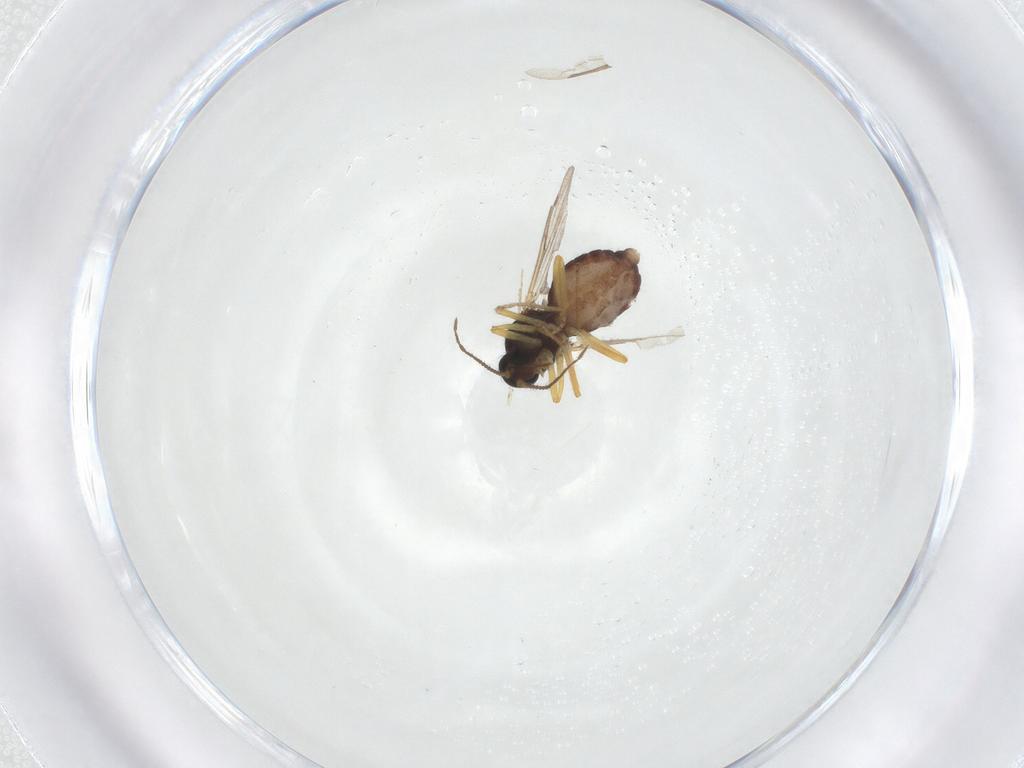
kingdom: Animalia
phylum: Arthropoda
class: Insecta
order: Diptera
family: Ceratopogonidae
